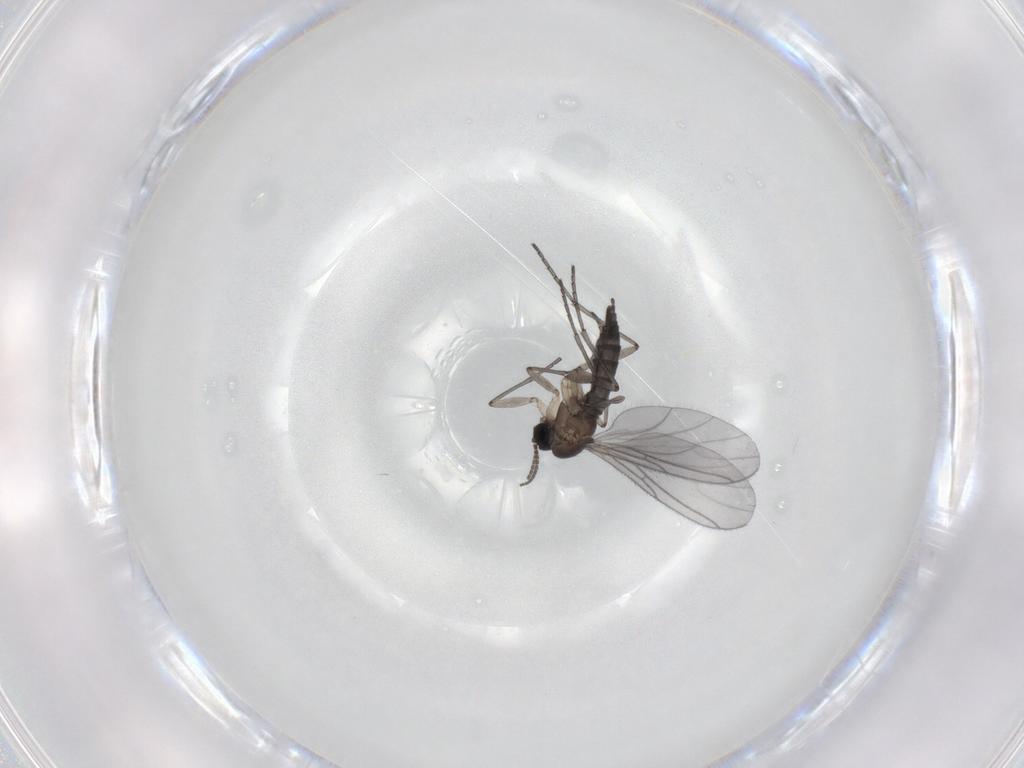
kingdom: Animalia
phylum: Arthropoda
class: Insecta
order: Diptera
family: Sciaridae
